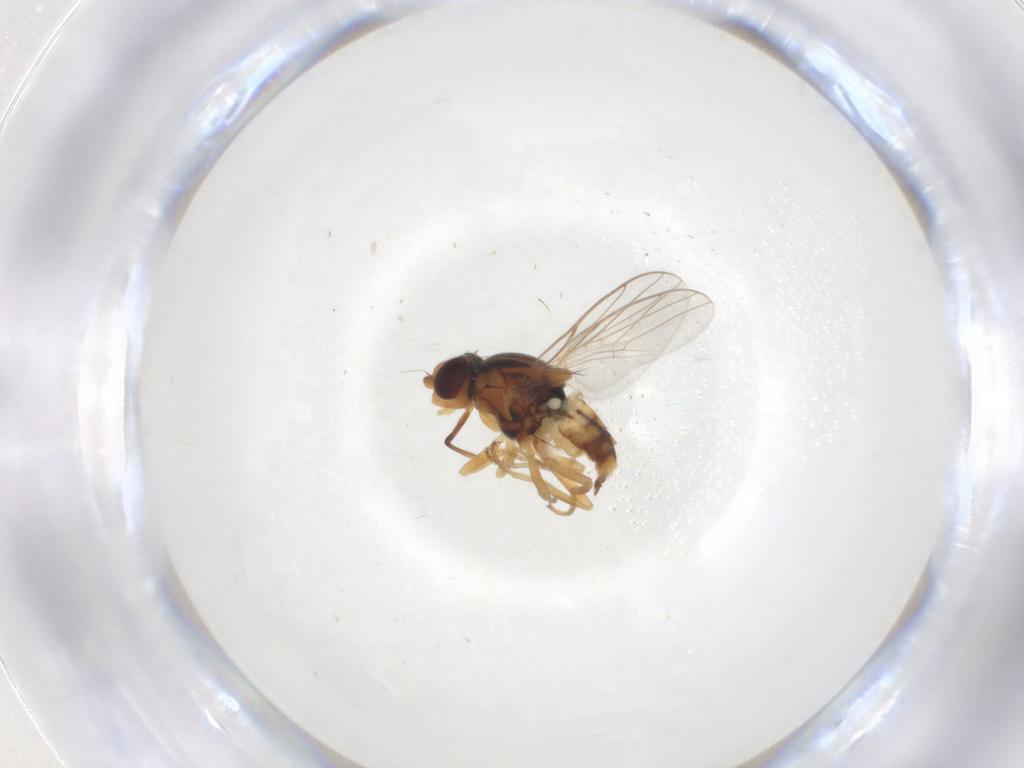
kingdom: Animalia
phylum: Arthropoda
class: Insecta
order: Diptera
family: Chloropidae
